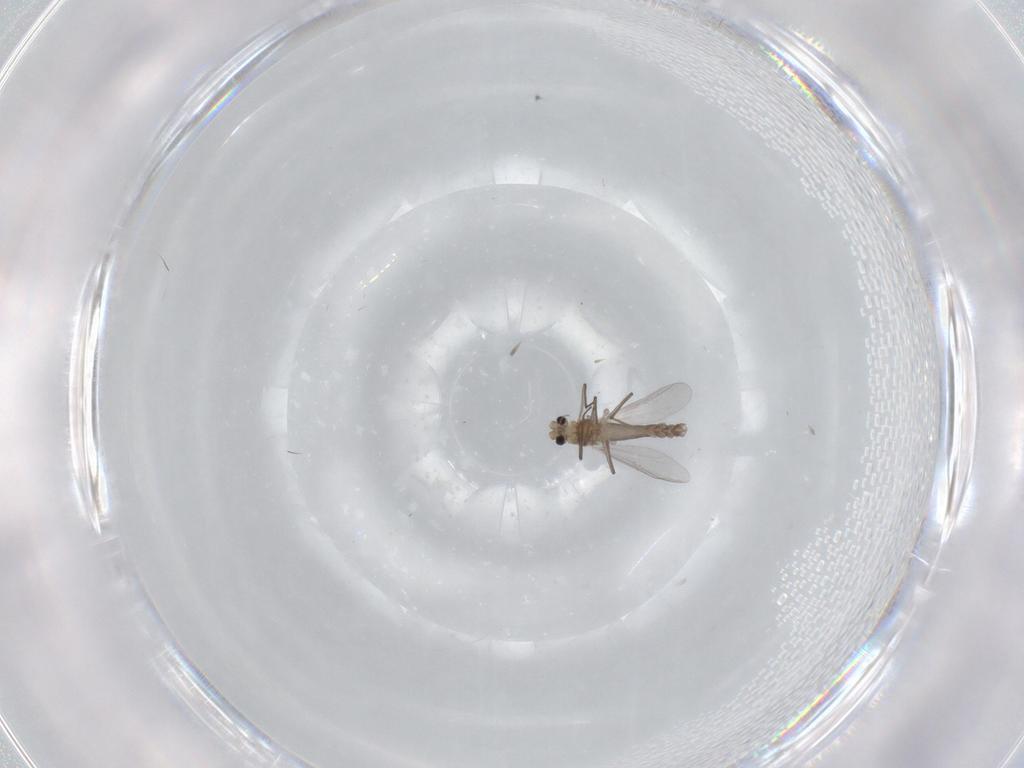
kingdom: Animalia
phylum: Arthropoda
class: Insecta
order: Diptera
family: Chironomidae
